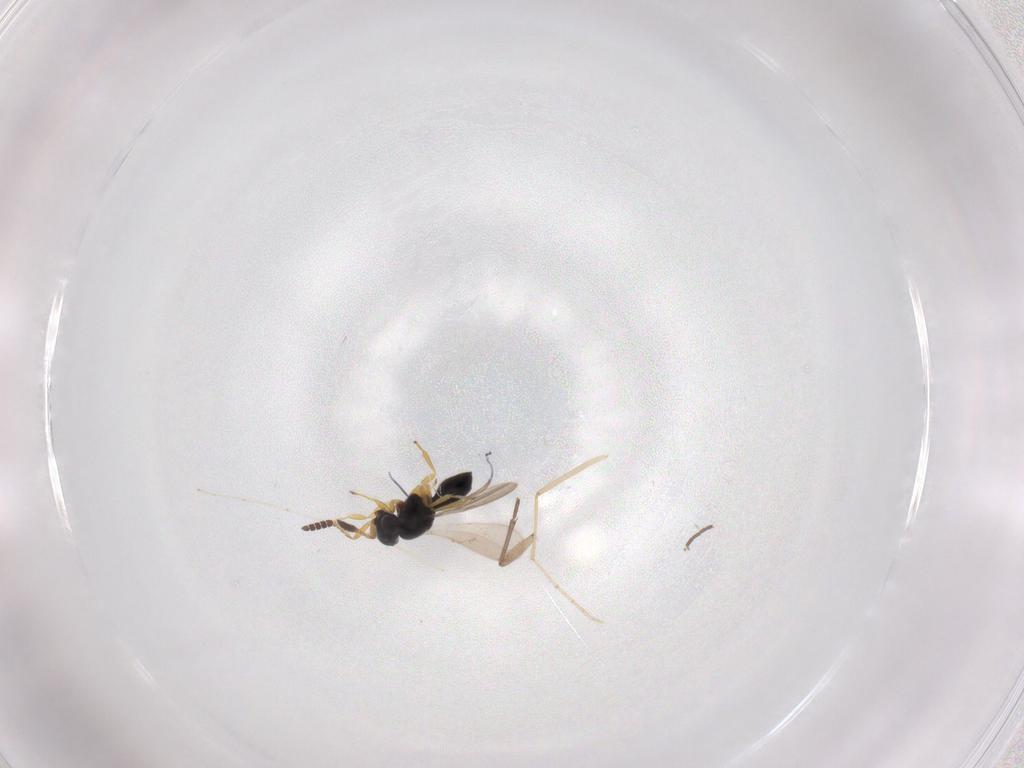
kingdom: Animalia
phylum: Arthropoda
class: Insecta
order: Hymenoptera
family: Scelionidae
